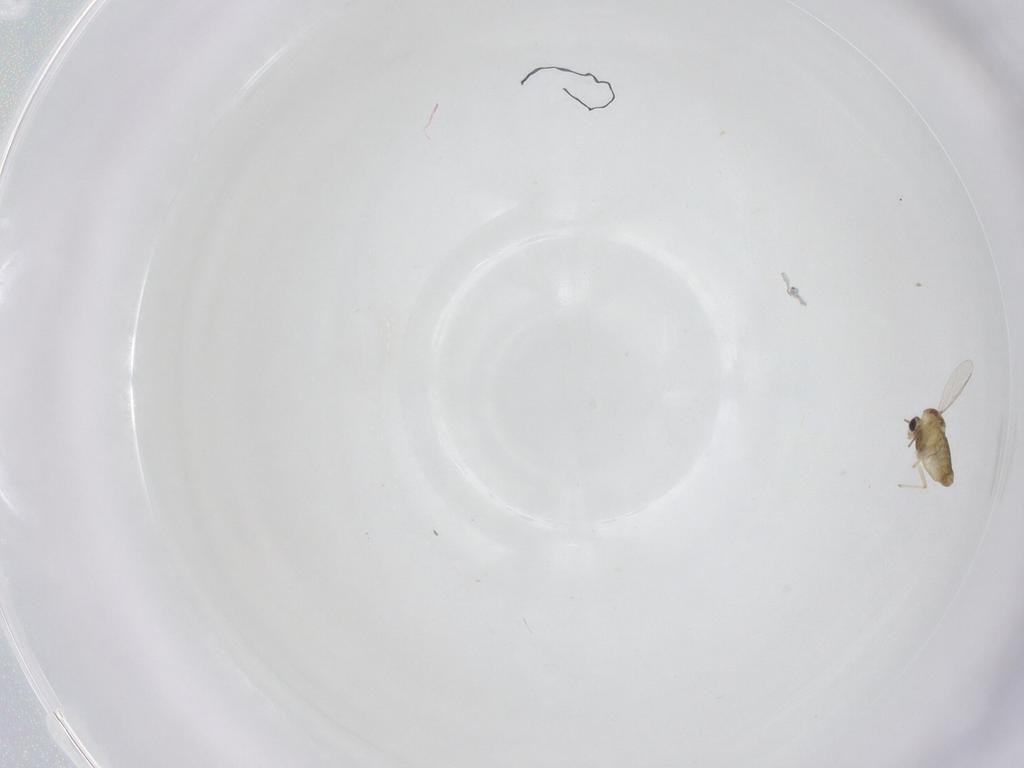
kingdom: Animalia
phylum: Arthropoda
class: Insecta
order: Diptera
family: Chironomidae
